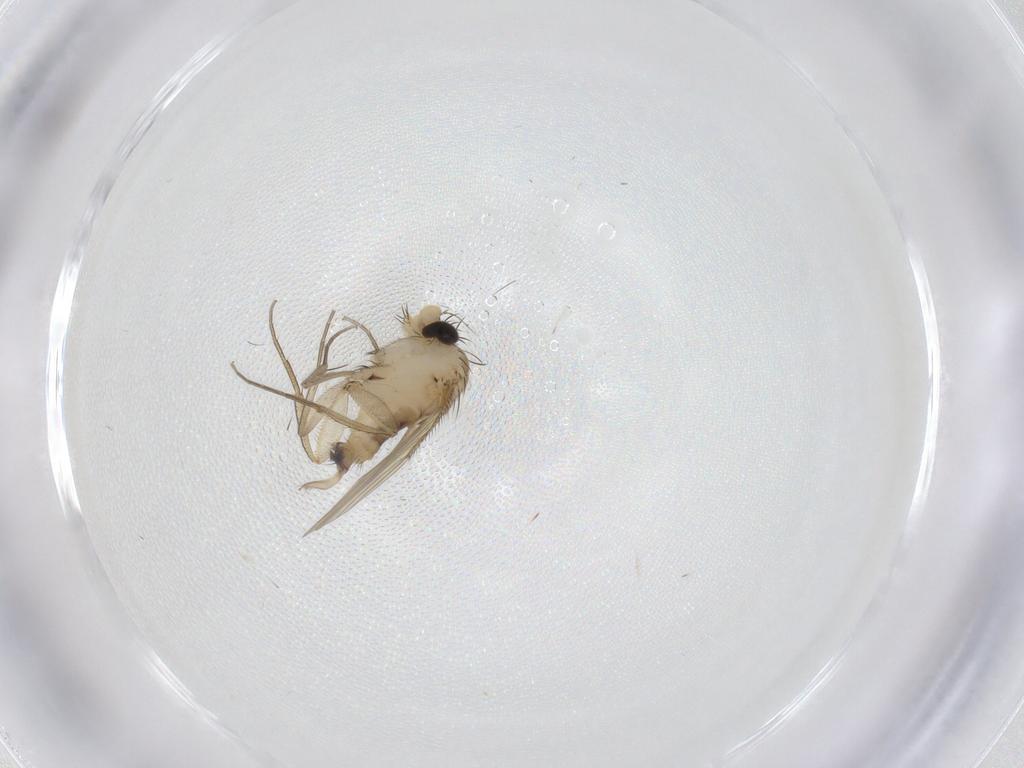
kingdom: Animalia
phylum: Arthropoda
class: Insecta
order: Diptera
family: Phoridae
